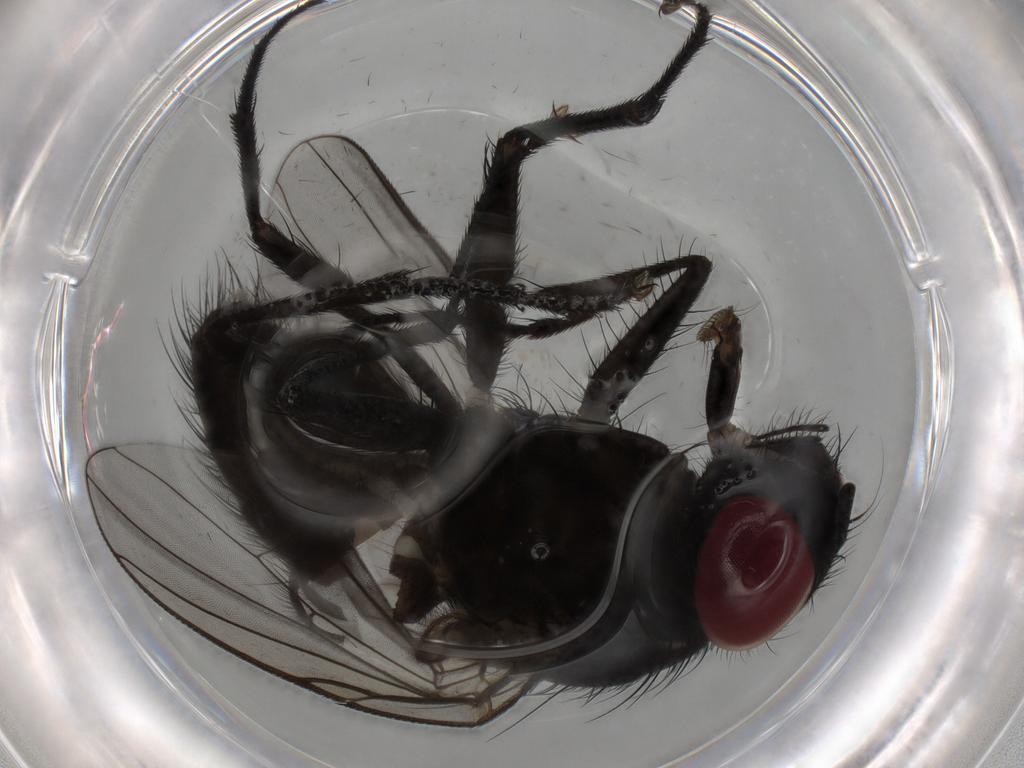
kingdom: Animalia
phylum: Arthropoda
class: Insecta
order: Diptera
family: Muscidae
